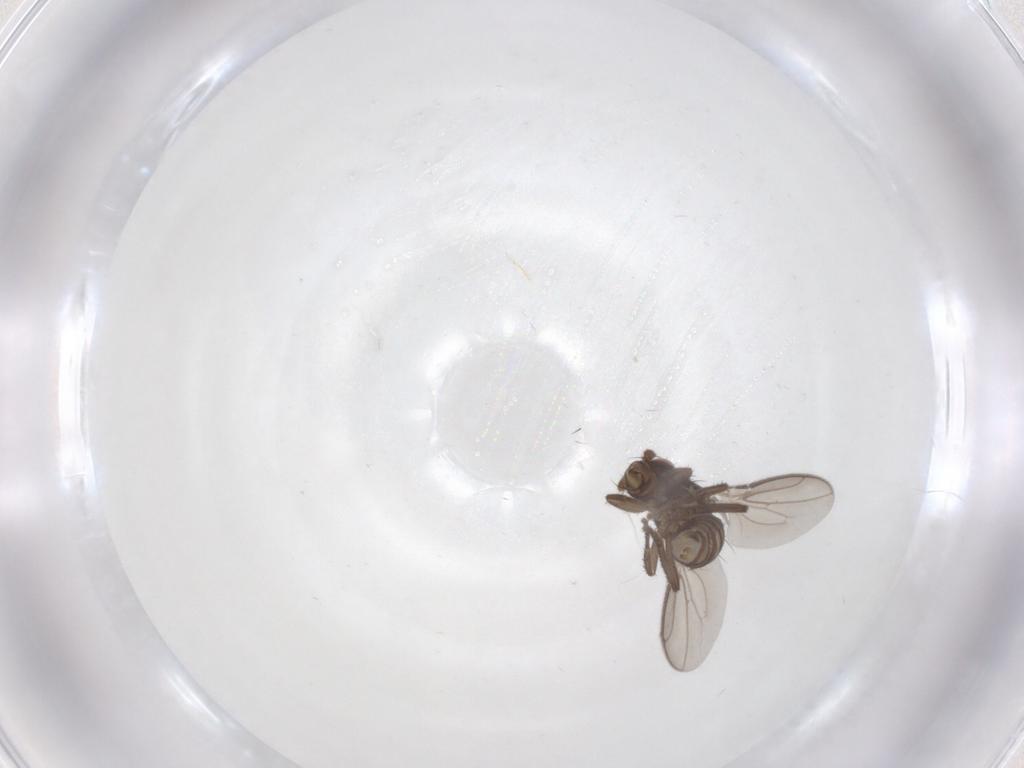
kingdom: Animalia
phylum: Arthropoda
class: Insecta
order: Diptera
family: Sphaeroceridae
